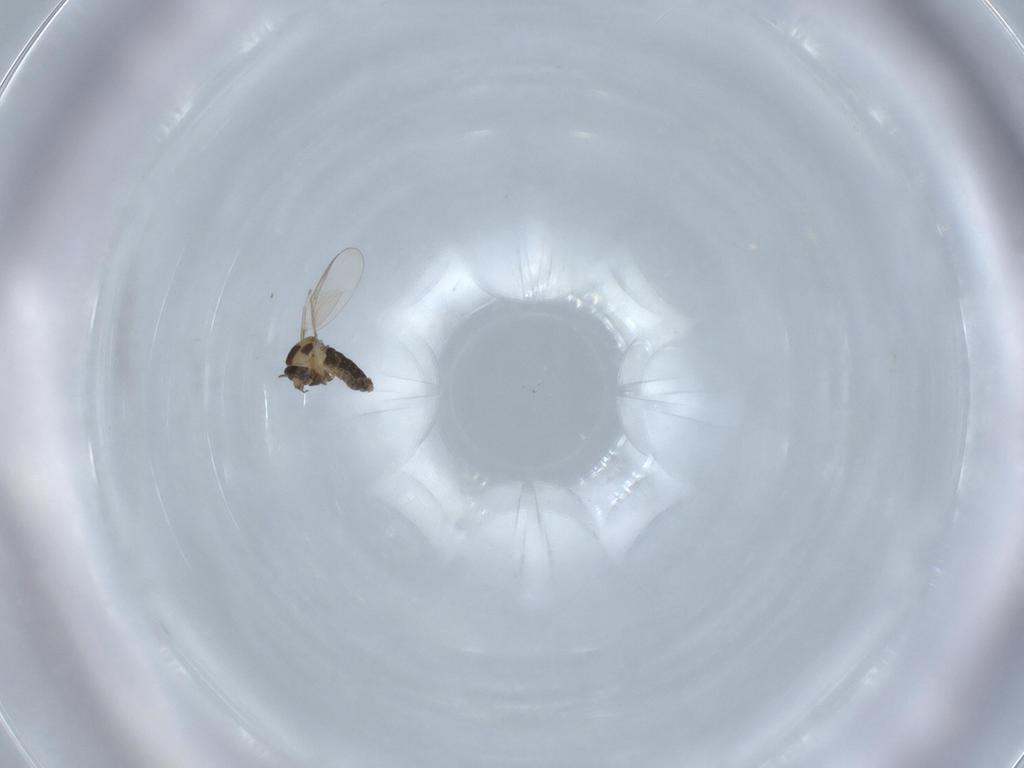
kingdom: Animalia
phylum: Arthropoda
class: Insecta
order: Diptera
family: Chironomidae
